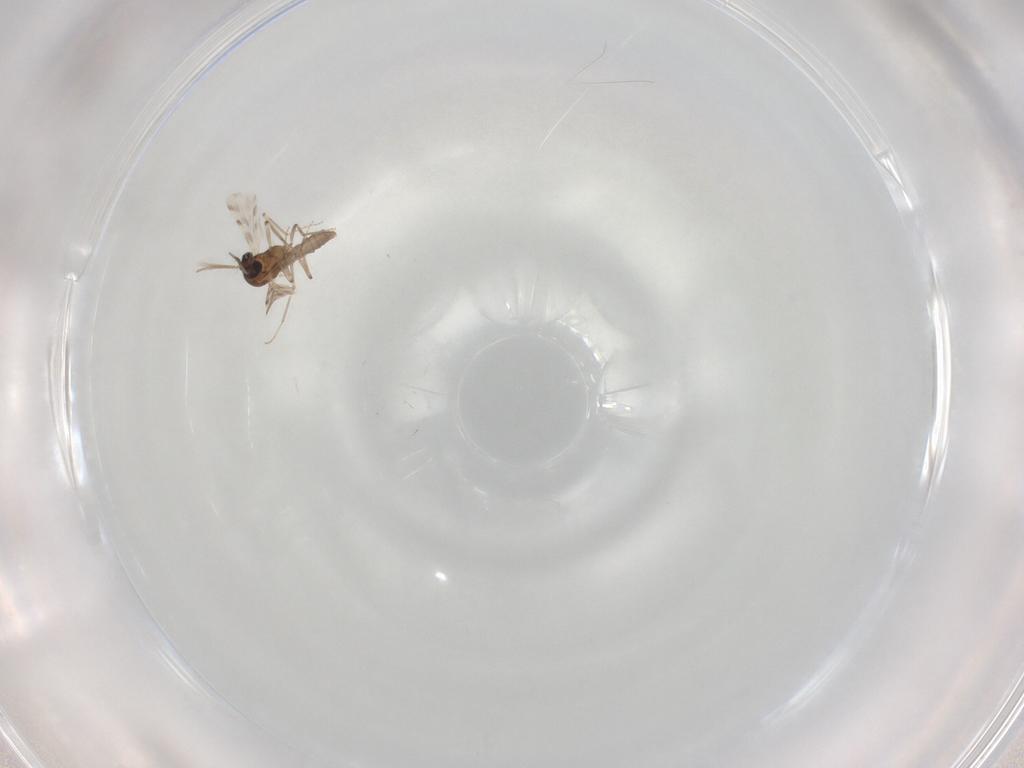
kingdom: Animalia
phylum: Arthropoda
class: Insecta
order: Diptera
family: Ceratopogonidae
